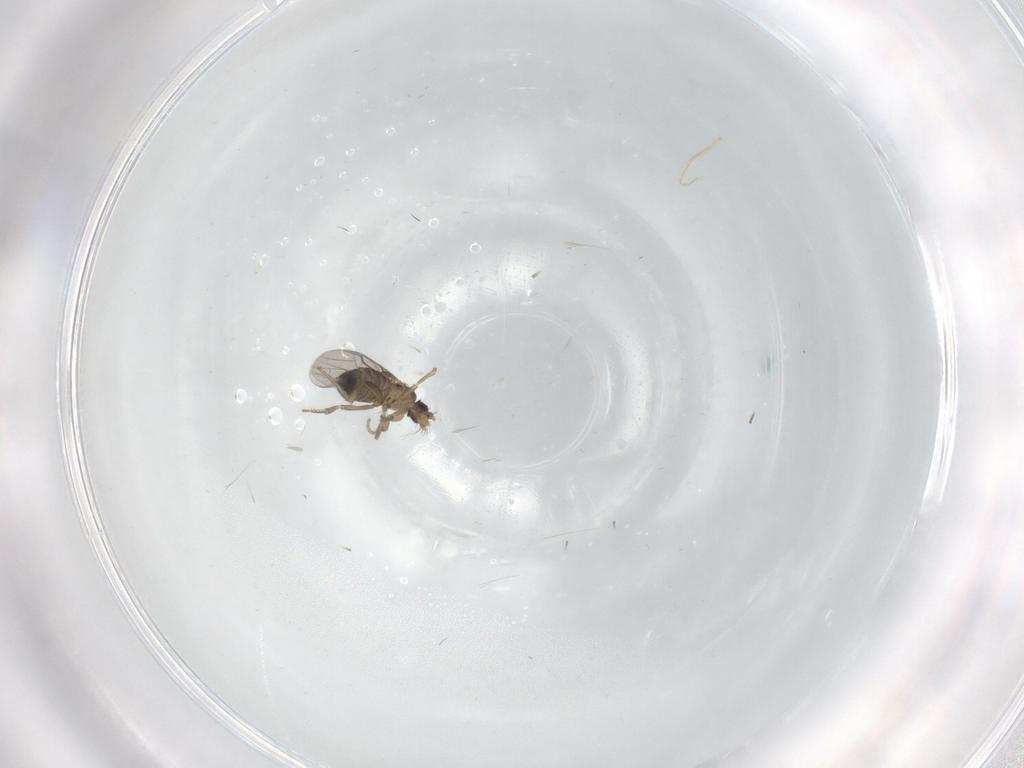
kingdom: Animalia
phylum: Arthropoda
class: Insecta
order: Diptera
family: Phoridae
